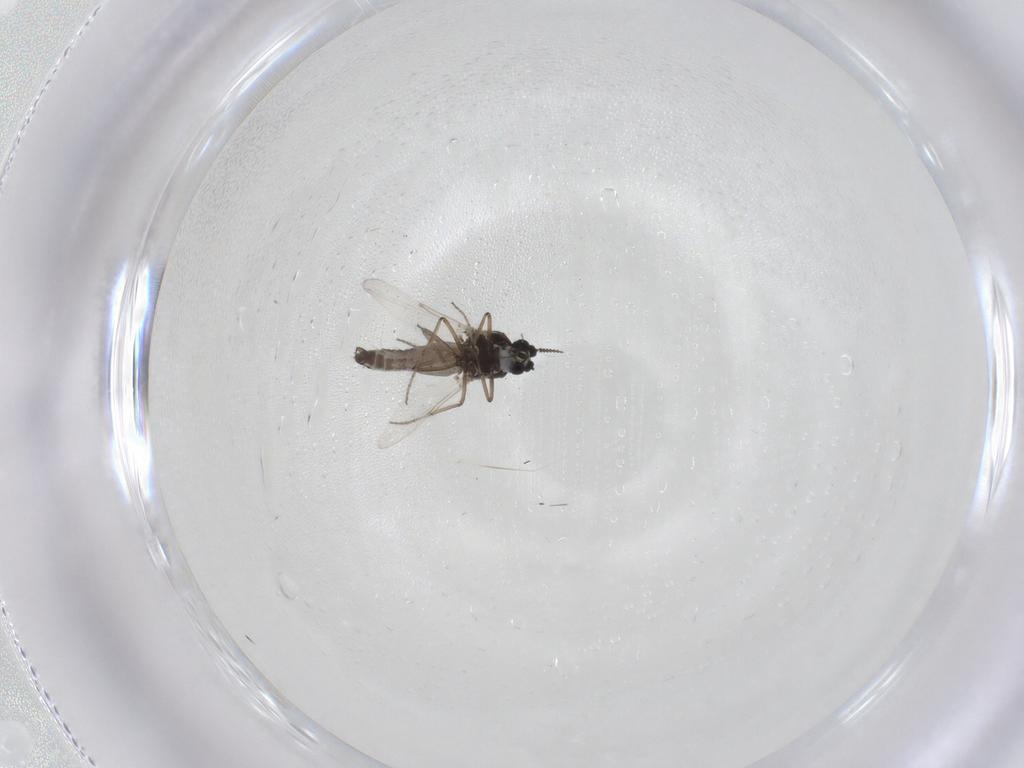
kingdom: Animalia
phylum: Arthropoda
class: Insecta
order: Diptera
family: Ceratopogonidae
